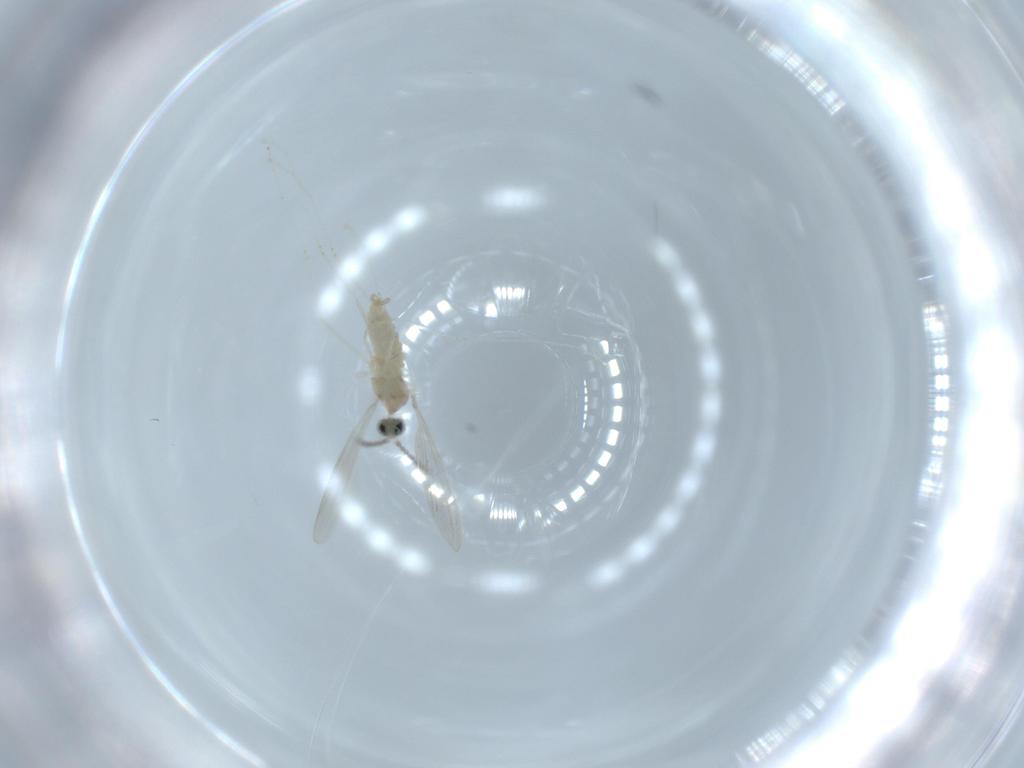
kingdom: Animalia
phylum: Arthropoda
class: Insecta
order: Diptera
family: Cecidomyiidae
